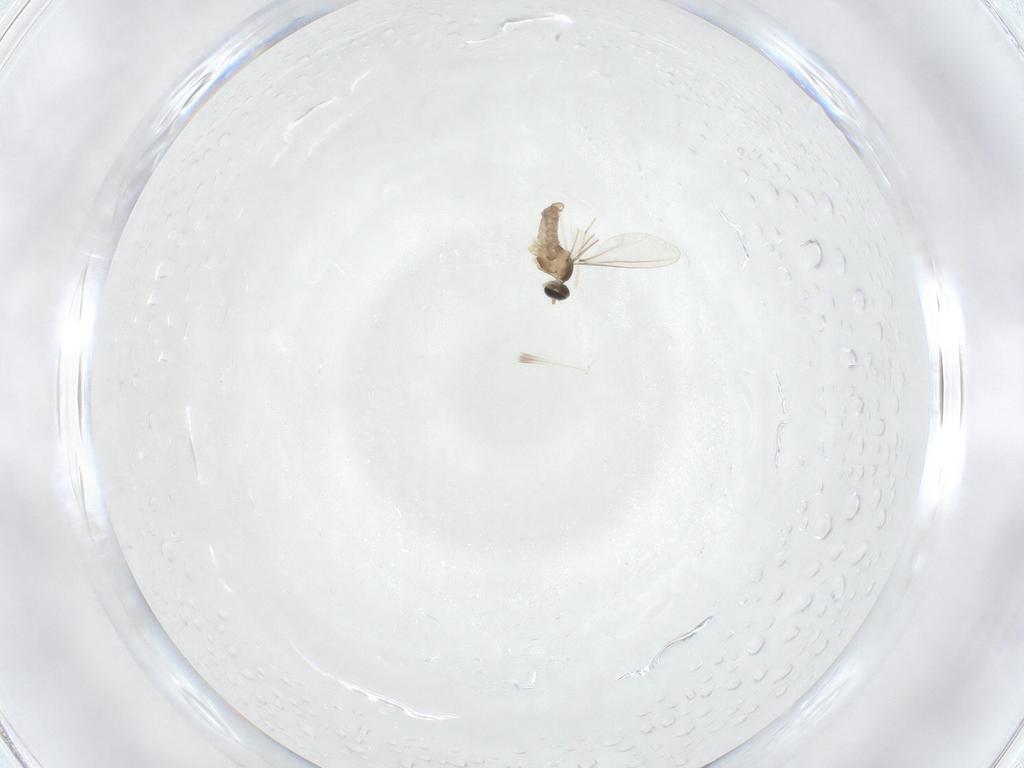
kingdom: Animalia
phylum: Arthropoda
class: Insecta
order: Diptera
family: Cecidomyiidae
